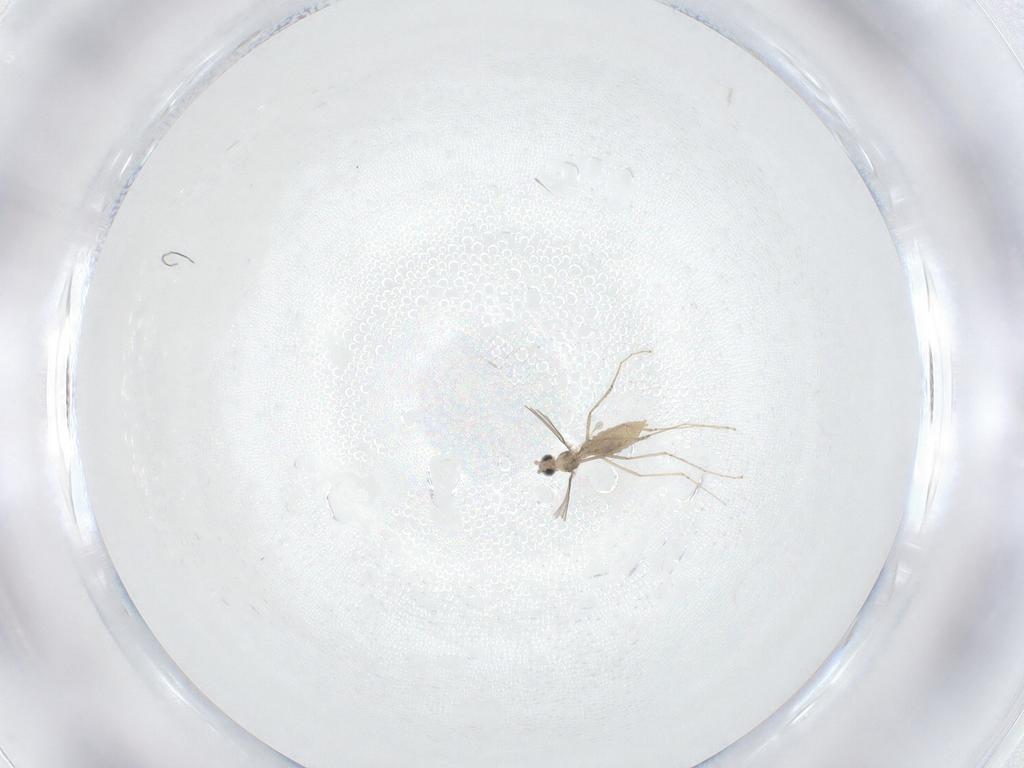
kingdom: Animalia
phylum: Arthropoda
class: Insecta
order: Diptera
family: Cecidomyiidae
